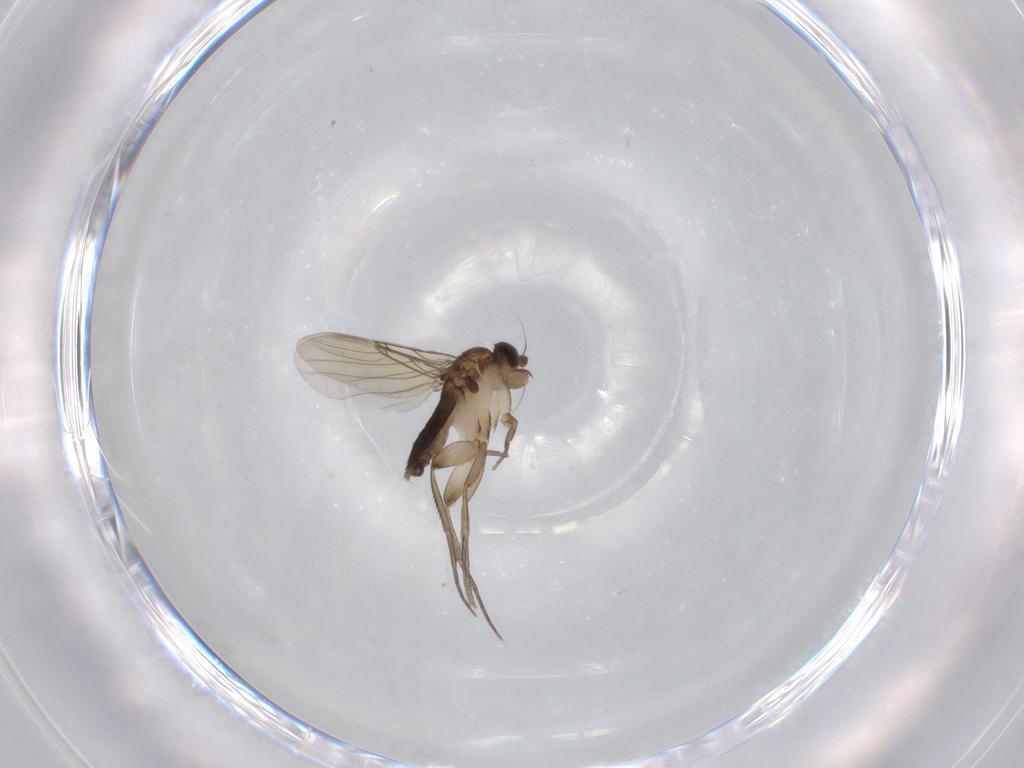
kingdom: Animalia
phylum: Arthropoda
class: Insecta
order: Diptera
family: Phoridae
